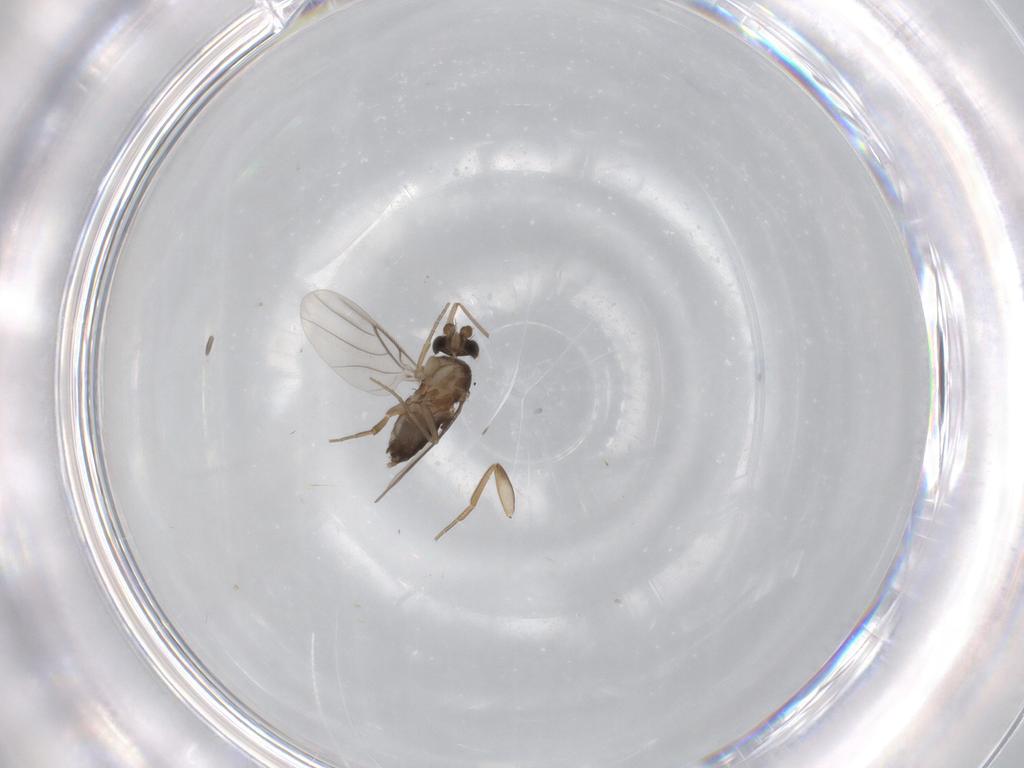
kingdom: Animalia
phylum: Arthropoda
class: Insecta
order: Diptera
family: Phoridae
